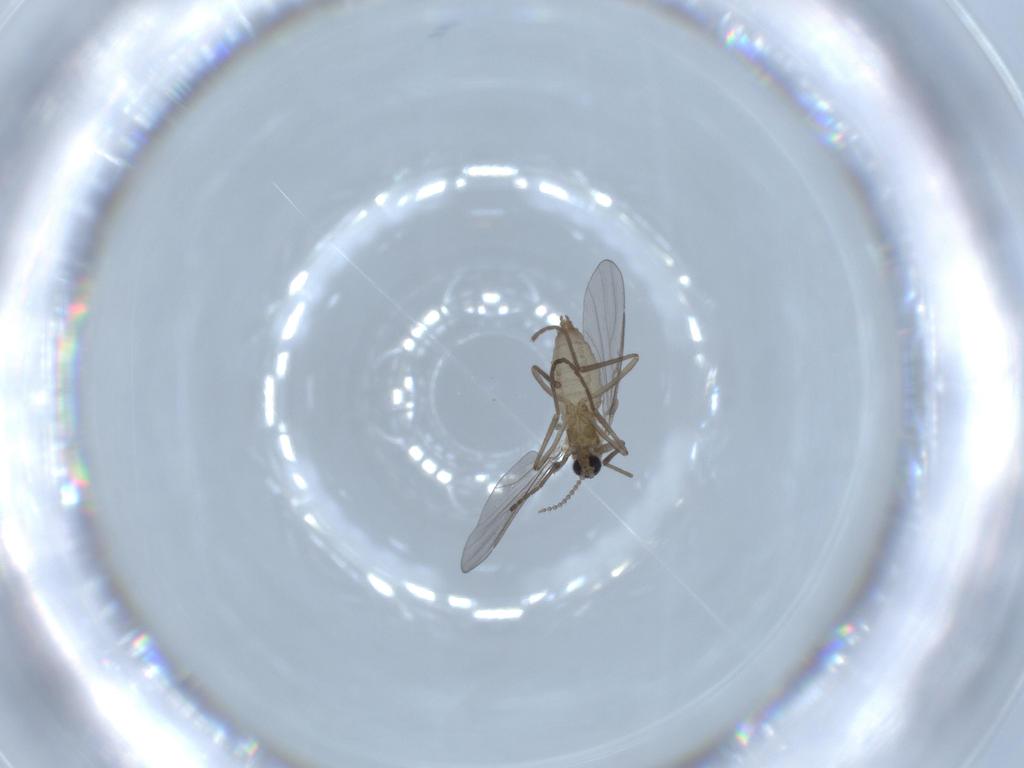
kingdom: Animalia
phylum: Arthropoda
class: Insecta
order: Diptera
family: Cecidomyiidae
